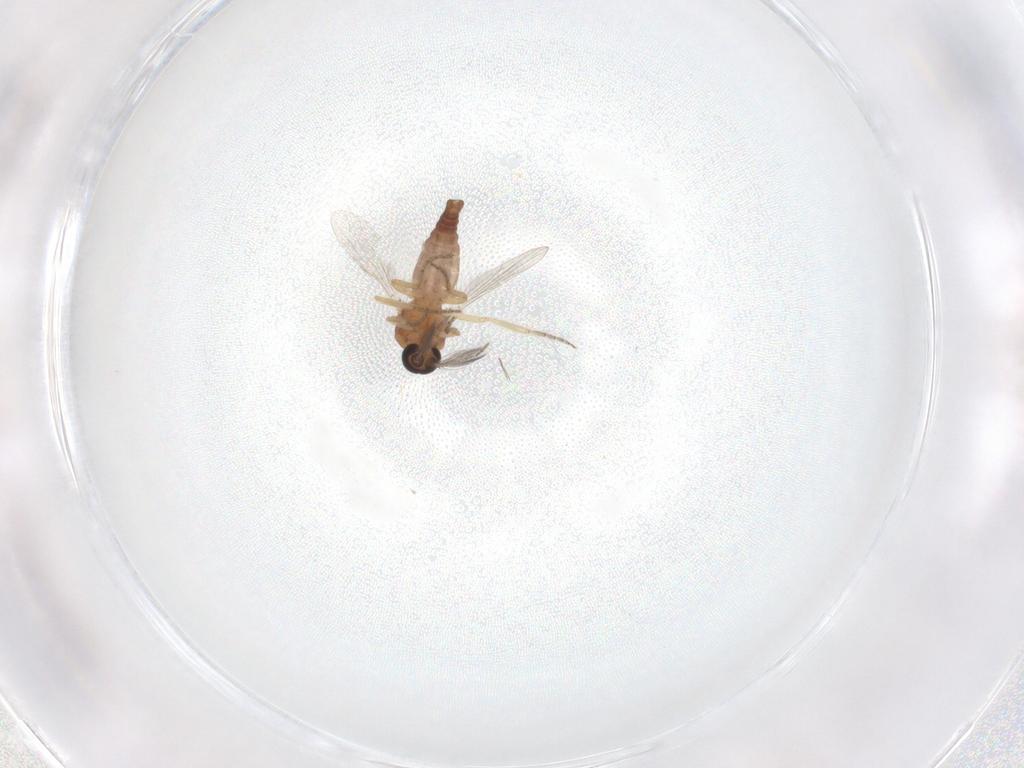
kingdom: Animalia
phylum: Arthropoda
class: Insecta
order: Diptera
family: Ceratopogonidae
